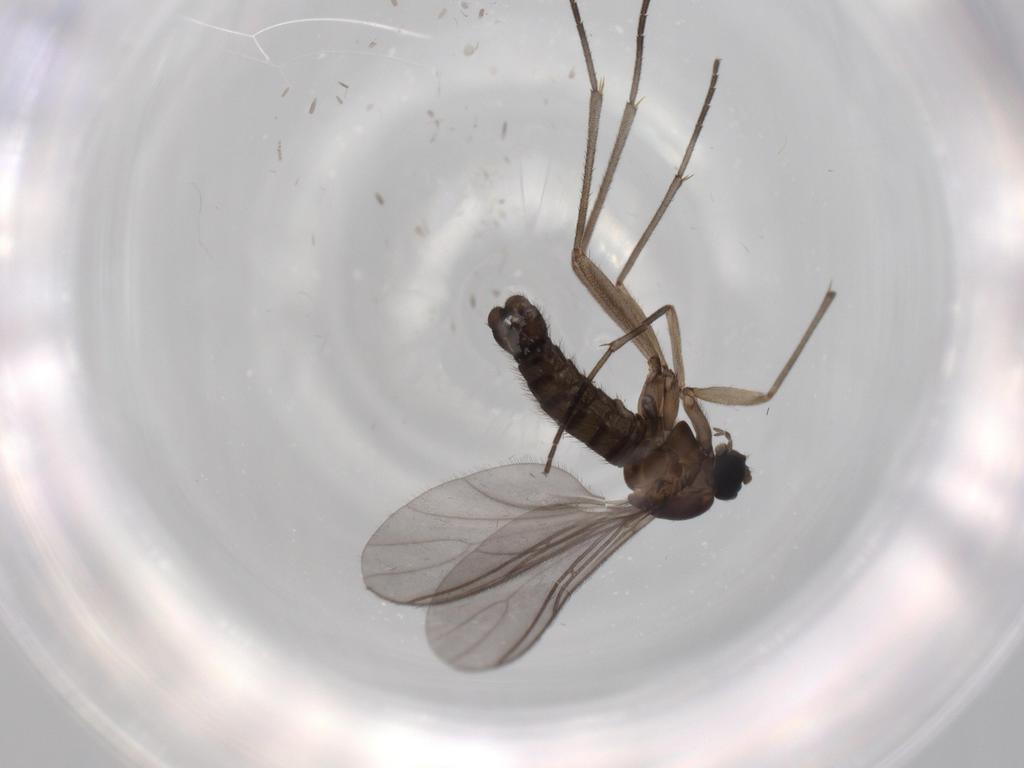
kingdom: Animalia
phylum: Arthropoda
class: Insecta
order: Diptera
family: Sciaridae
